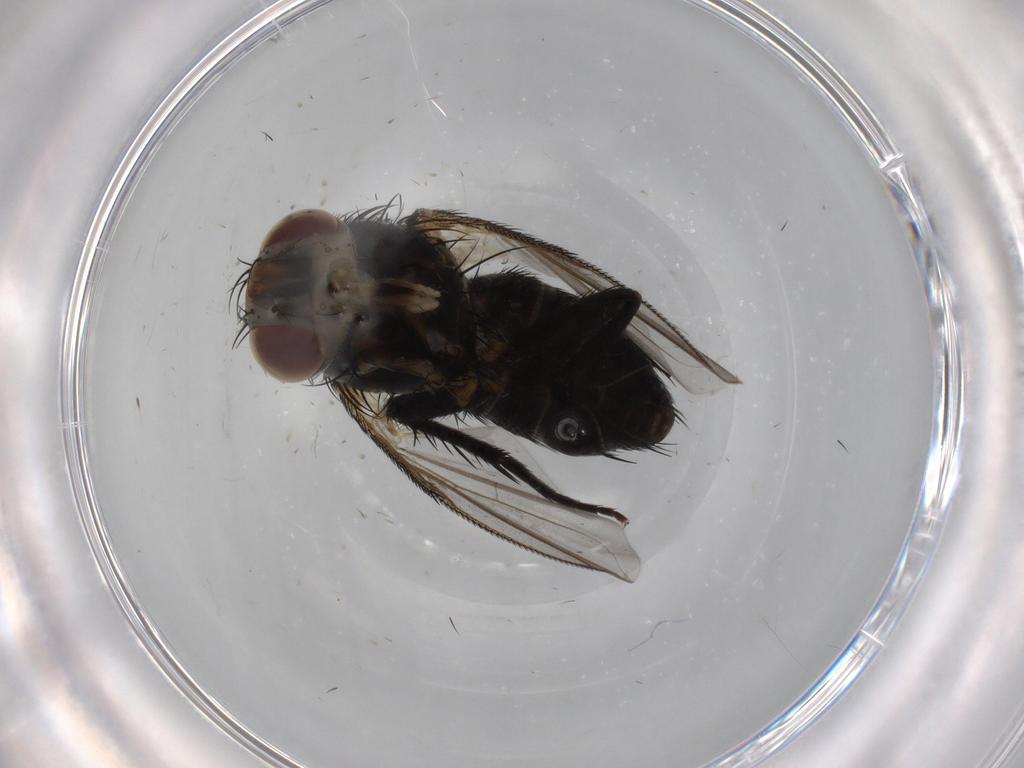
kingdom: Animalia
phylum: Arthropoda
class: Insecta
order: Diptera
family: Tachinidae
